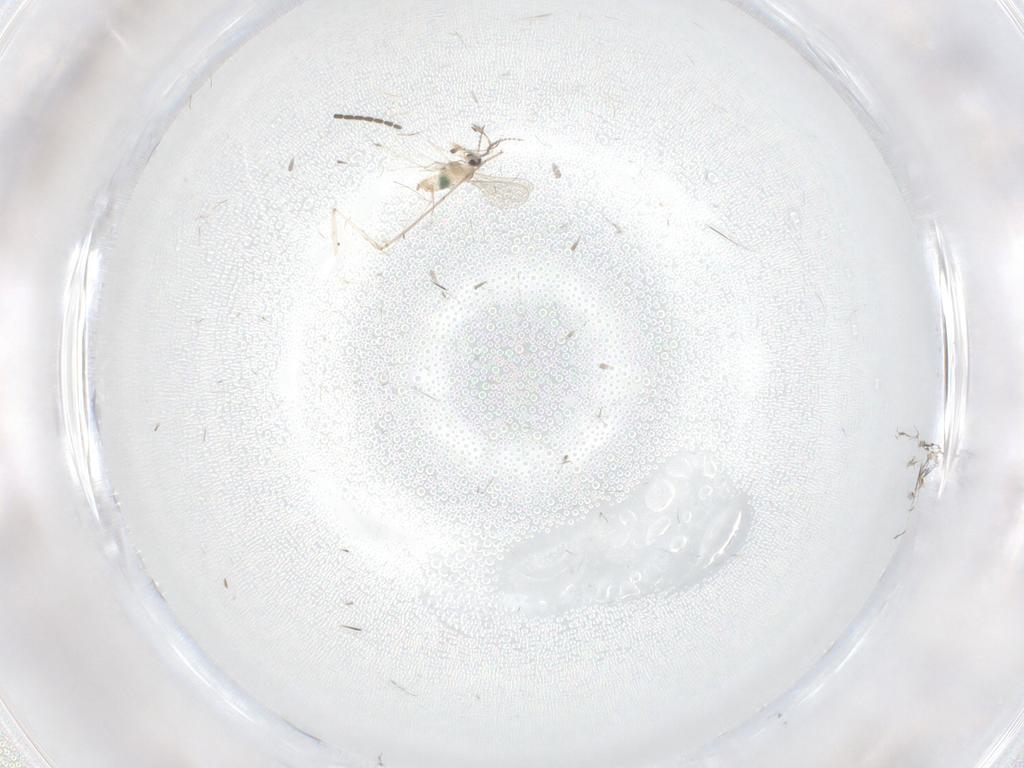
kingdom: Animalia
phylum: Arthropoda
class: Insecta
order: Diptera
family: Cecidomyiidae
